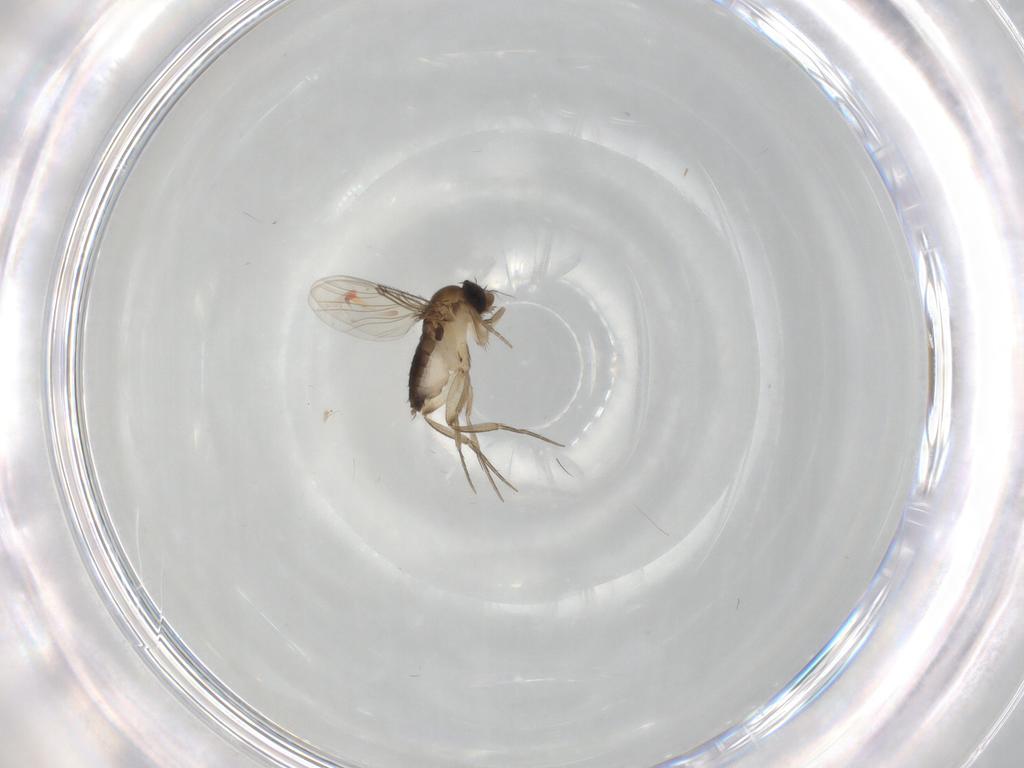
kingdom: Animalia
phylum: Arthropoda
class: Insecta
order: Diptera
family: Phoridae
